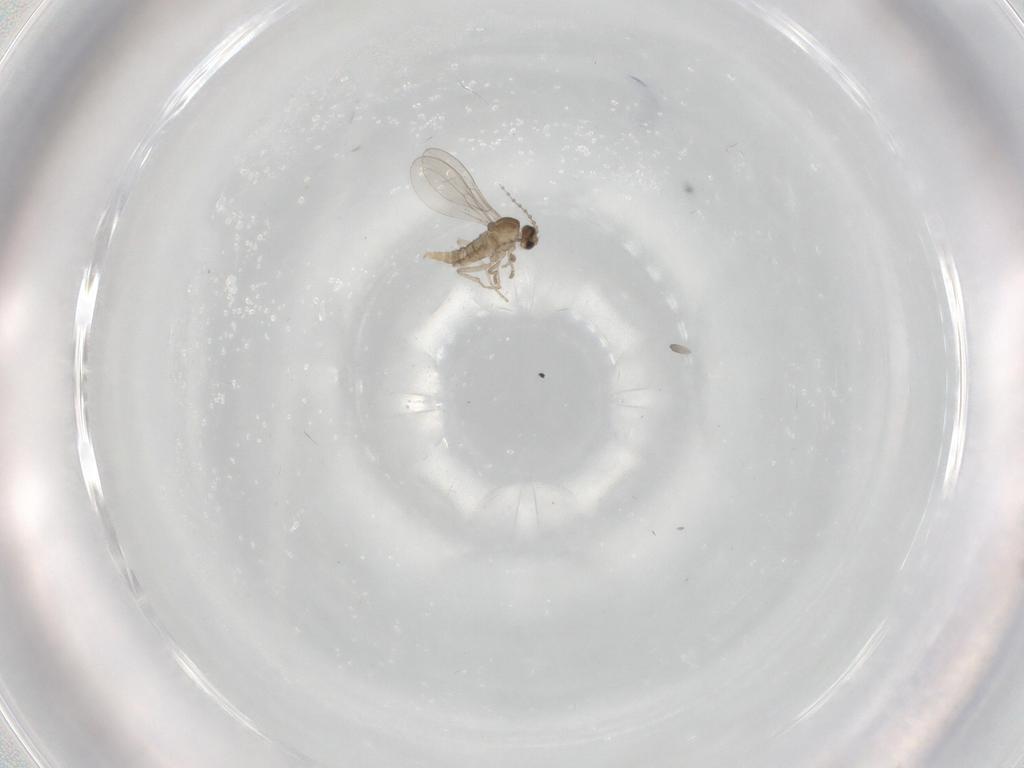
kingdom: Animalia
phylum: Arthropoda
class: Insecta
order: Diptera
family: Cecidomyiidae
